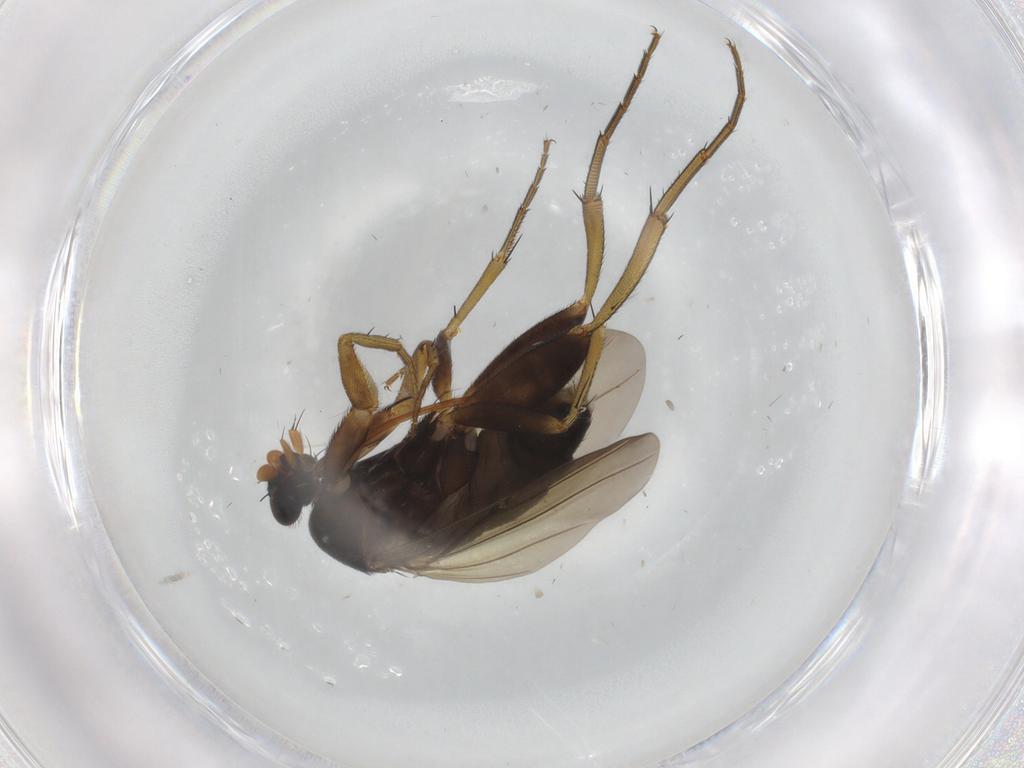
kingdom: Animalia
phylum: Arthropoda
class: Insecta
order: Diptera
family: Phoridae
